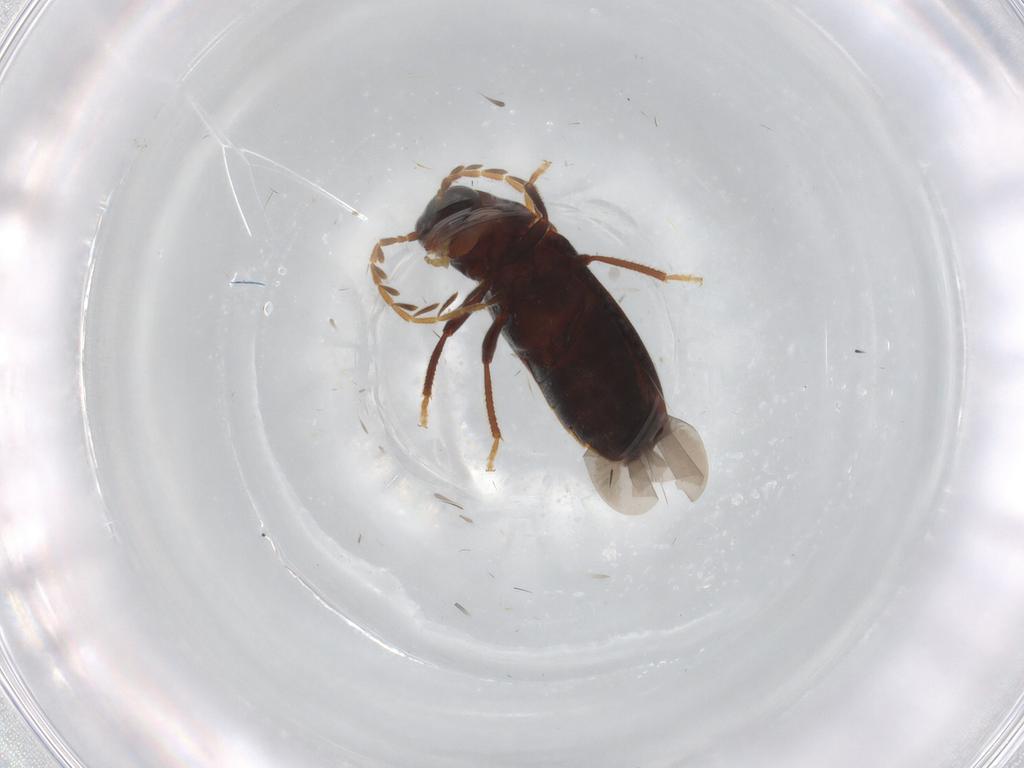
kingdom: Animalia
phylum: Arthropoda
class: Insecta
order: Coleoptera
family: Ptilodactylidae
